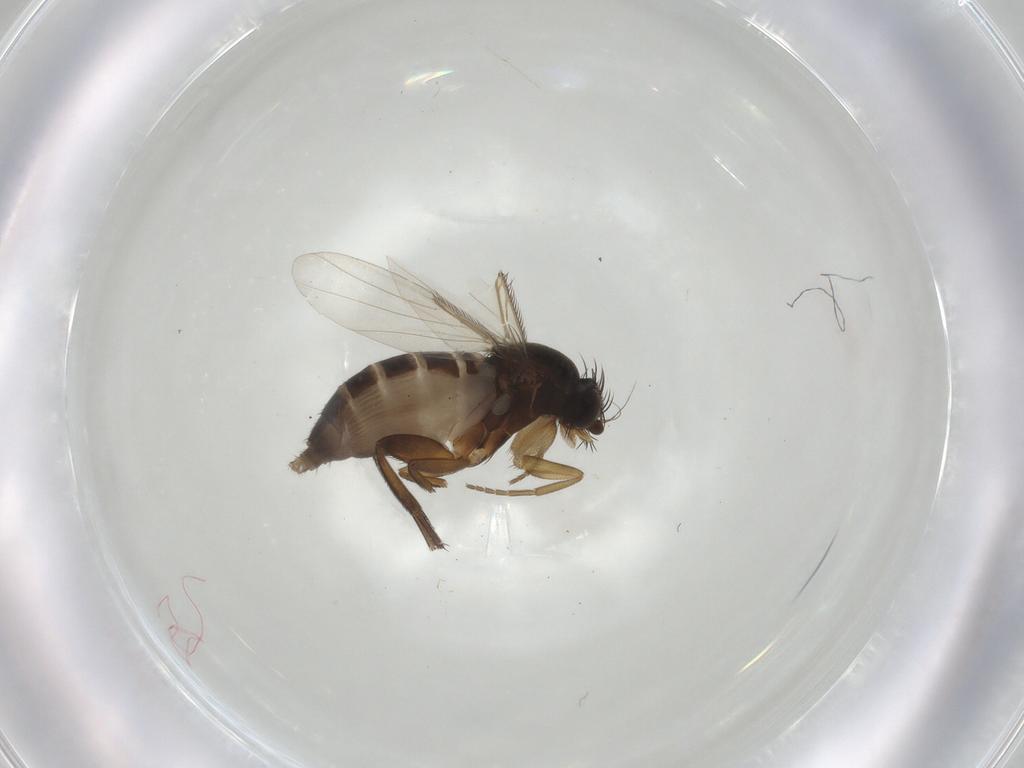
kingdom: Animalia
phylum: Arthropoda
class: Insecta
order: Diptera
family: Phoridae
